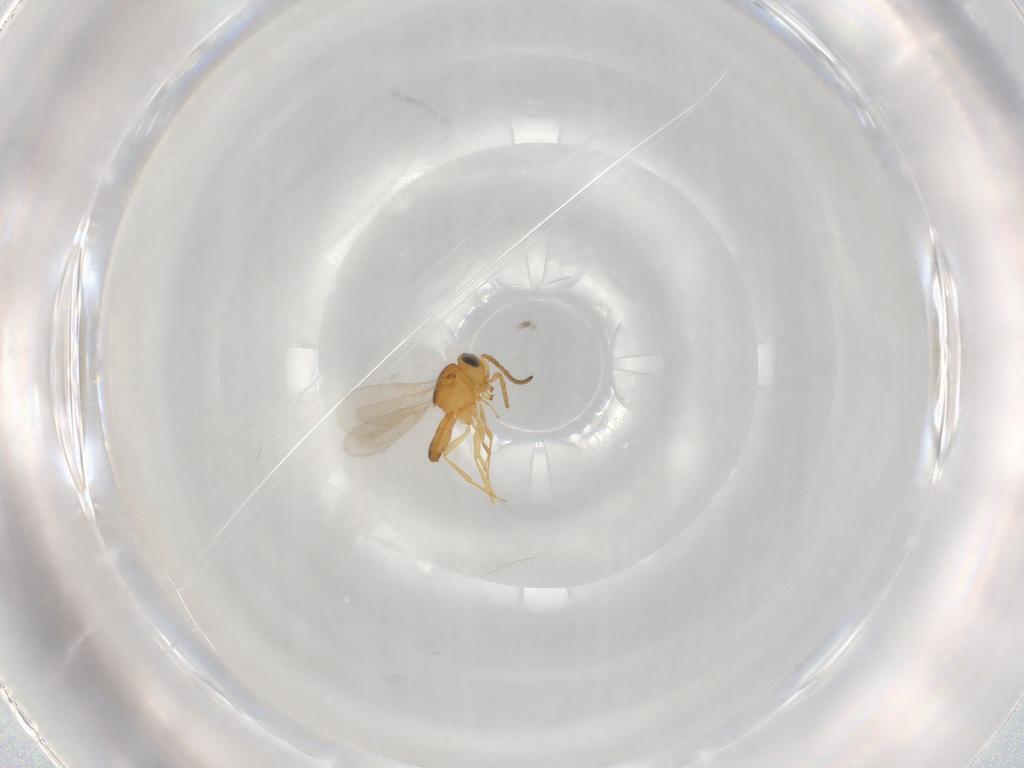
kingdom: Animalia
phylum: Arthropoda
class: Insecta
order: Hymenoptera
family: Scelionidae
